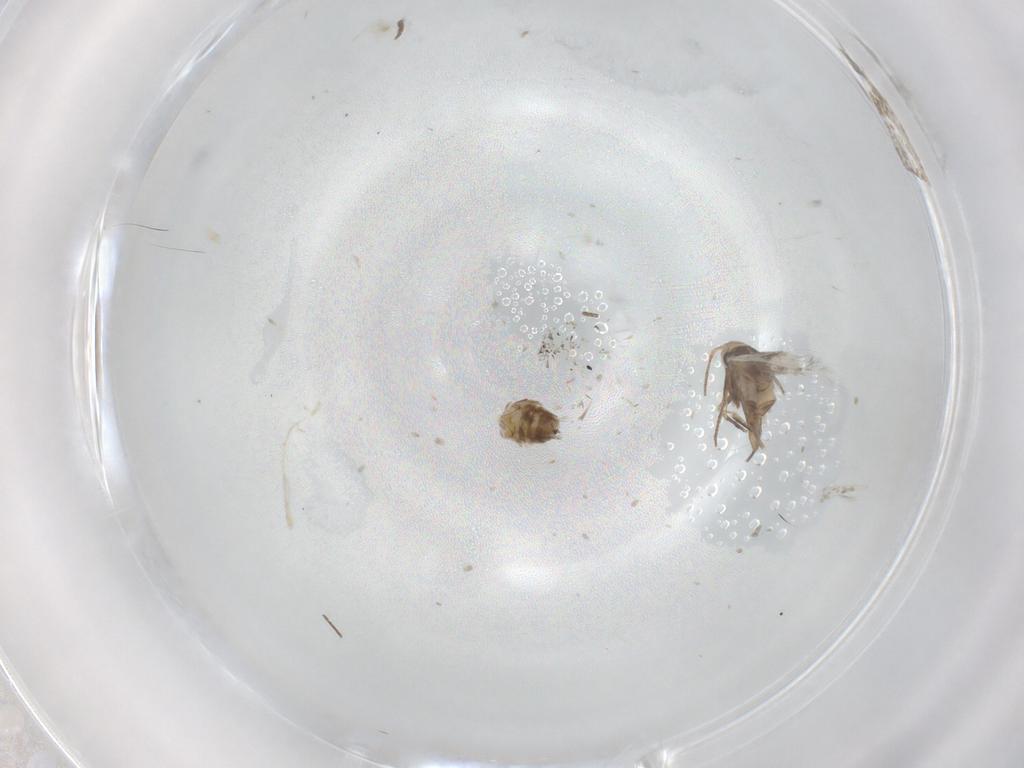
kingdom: Animalia
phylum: Arthropoda
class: Insecta
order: Lepidoptera
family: Nymphalidae
